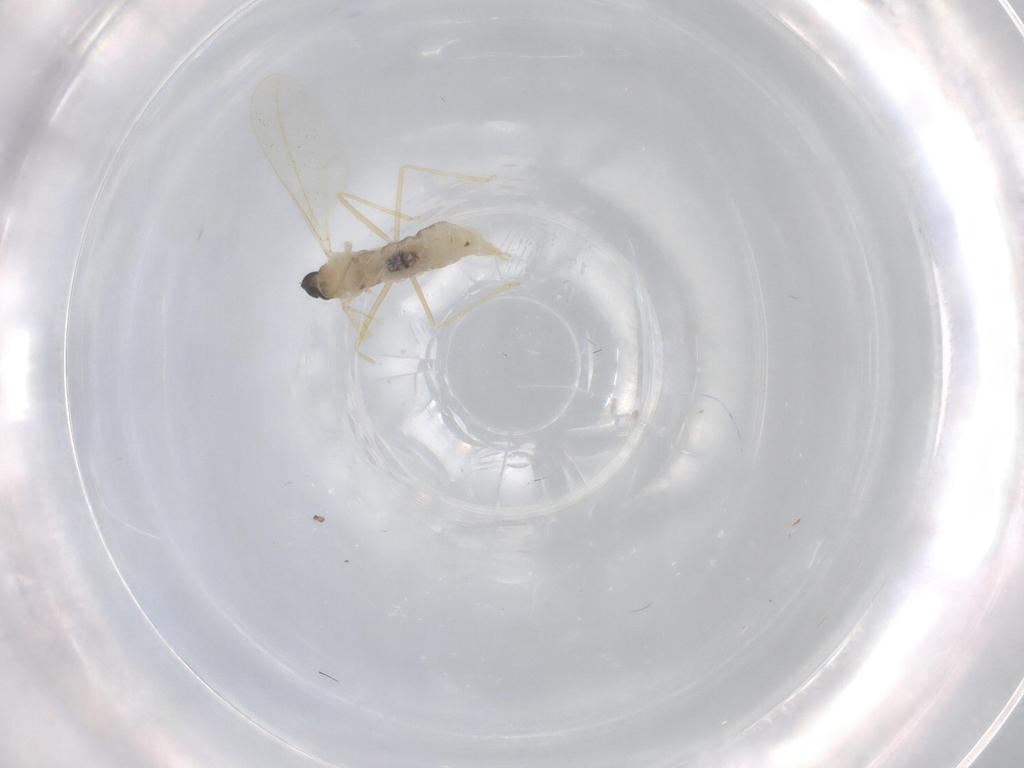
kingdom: Animalia
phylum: Arthropoda
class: Insecta
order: Diptera
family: Chironomidae
